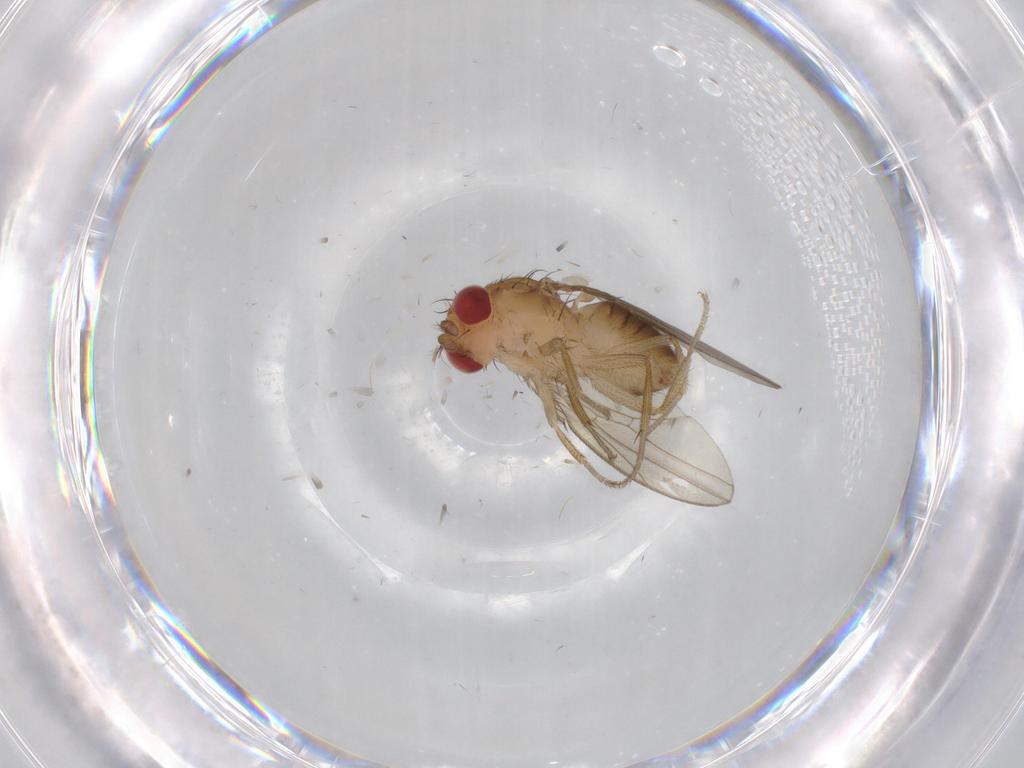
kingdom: Animalia
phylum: Arthropoda
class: Insecta
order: Diptera
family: Drosophilidae
